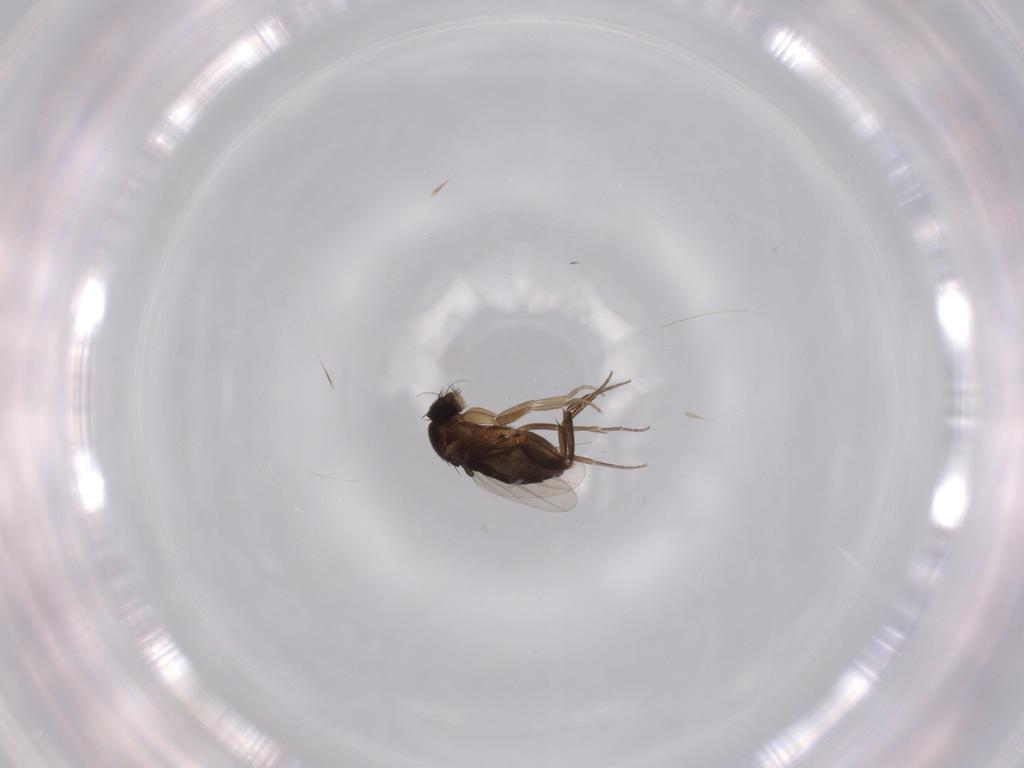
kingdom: Animalia
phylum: Arthropoda
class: Insecta
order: Diptera
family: Phoridae
